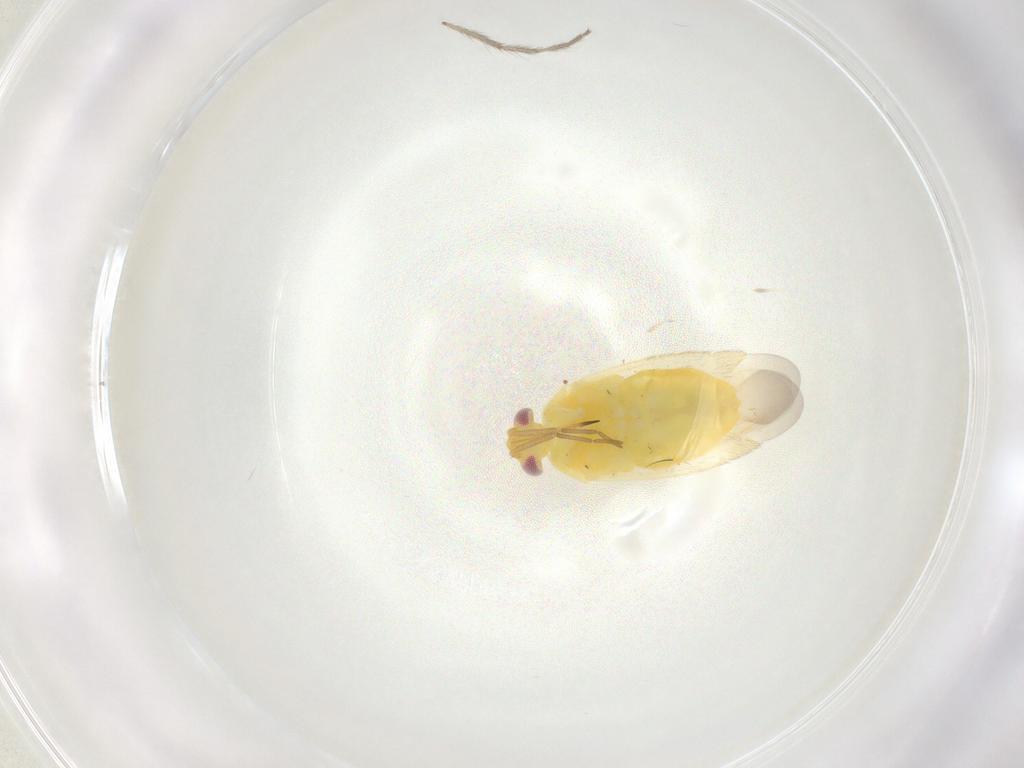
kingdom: Animalia
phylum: Arthropoda
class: Insecta
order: Hemiptera
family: Miridae
